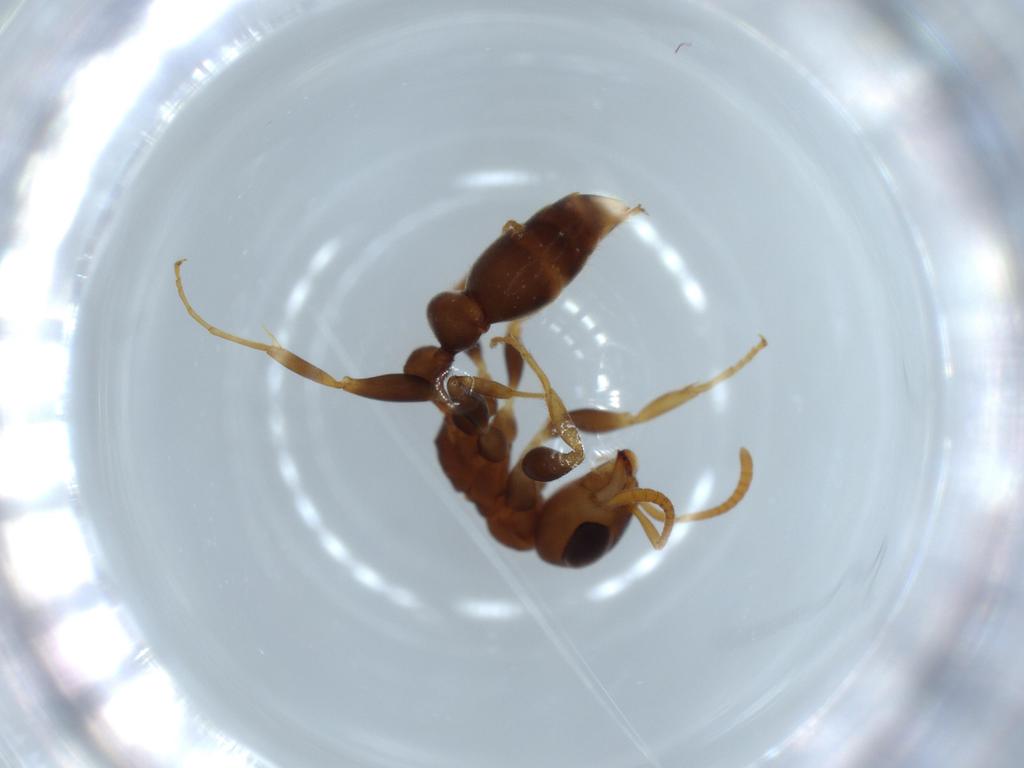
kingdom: Animalia
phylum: Arthropoda
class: Insecta
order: Hymenoptera
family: Formicidae
